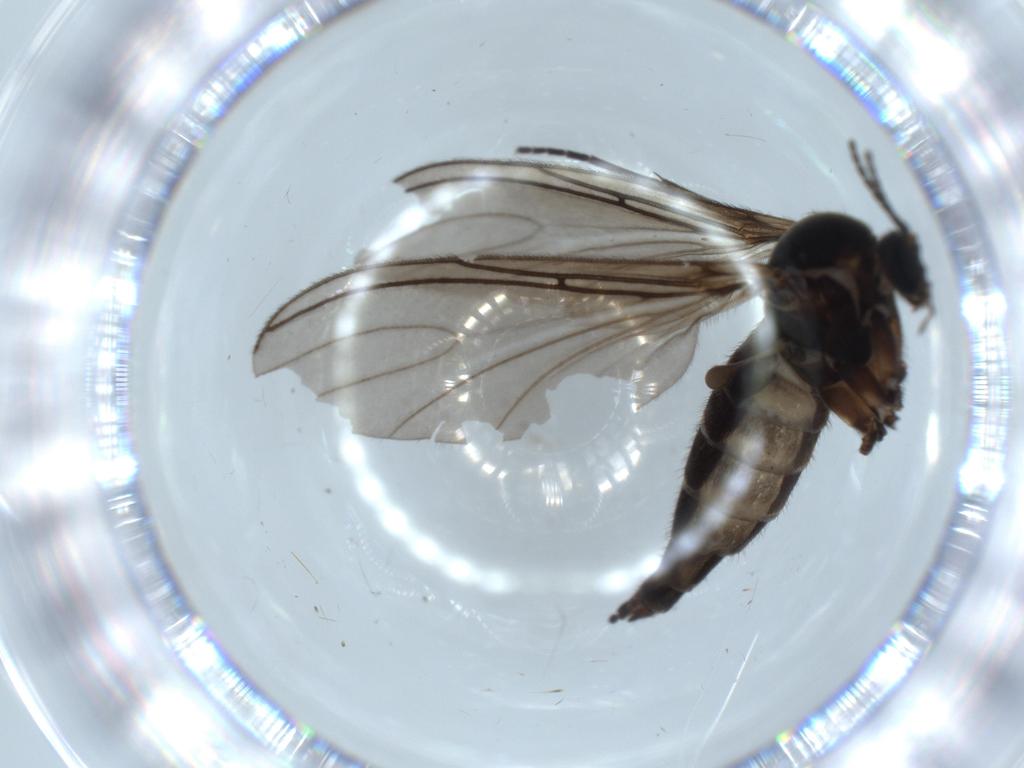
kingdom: Animalia
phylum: Arthropoda
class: Insecta
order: Diptera
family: Sciaridae
